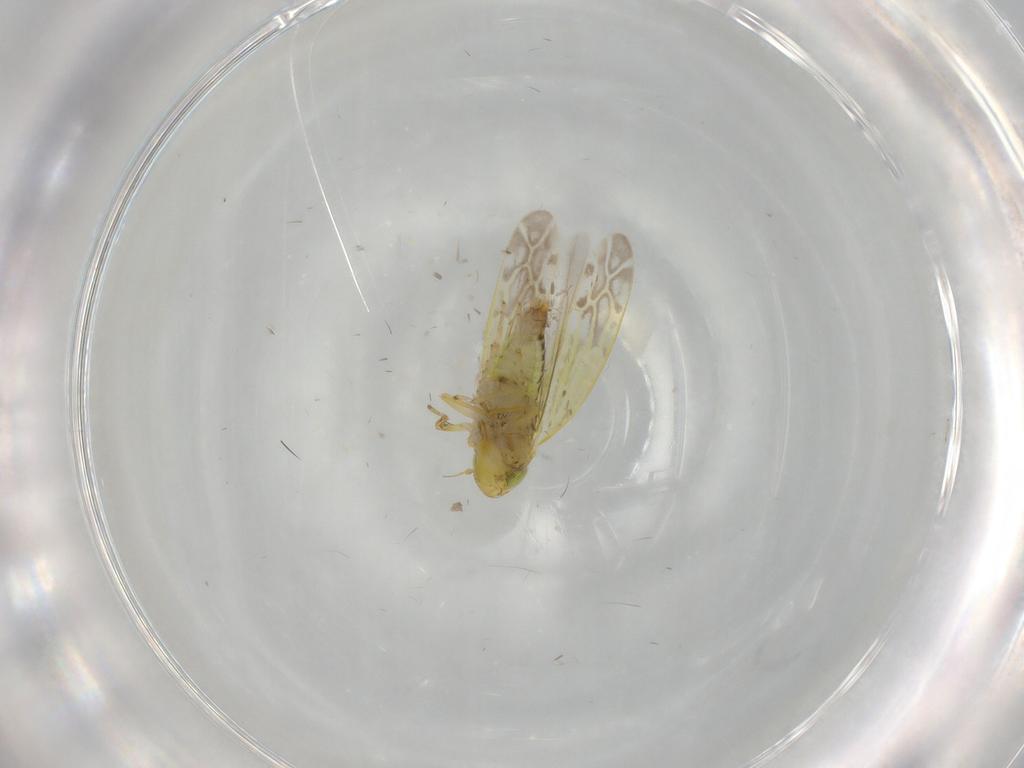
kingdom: Animalia
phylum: Arthropoda
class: Insecta
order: Hemiptera
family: Cicadellidae
